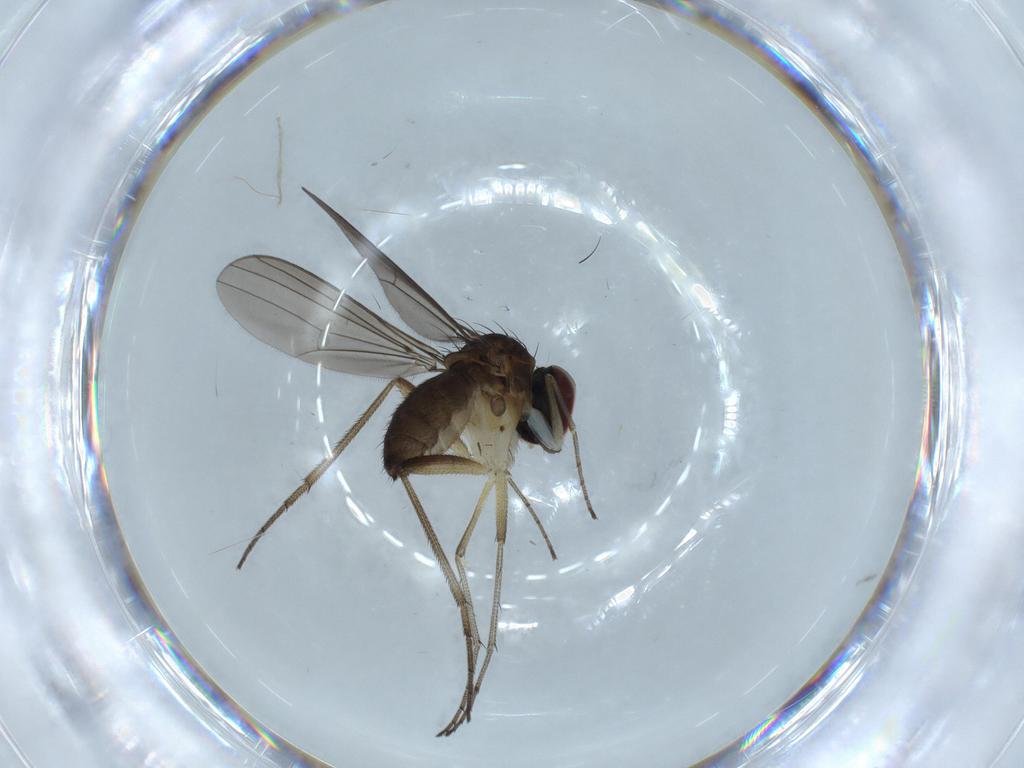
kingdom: Animalia
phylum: Arthropoda
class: Insecta
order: Diptera
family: Dolichopodidae
